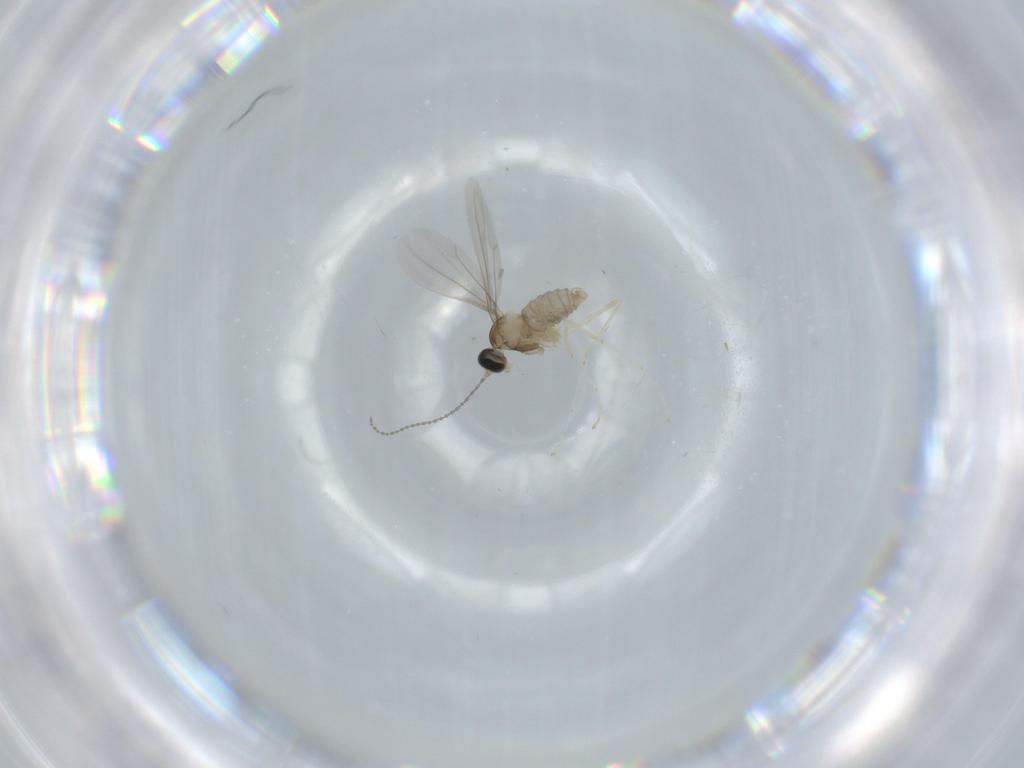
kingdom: Animalia
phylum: Arthropoda
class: Insecta
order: Diptera
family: Cecidomyiidae
